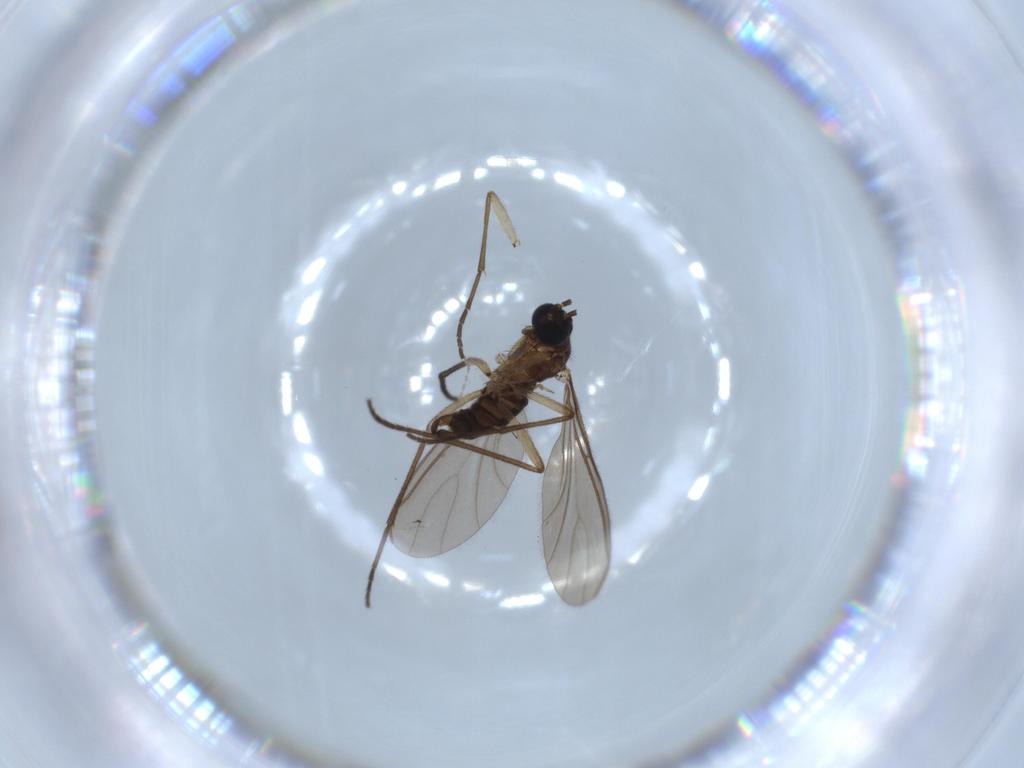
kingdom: Animalia
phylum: Arthropoda
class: Insecta
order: Diptera
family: Sciaridae
